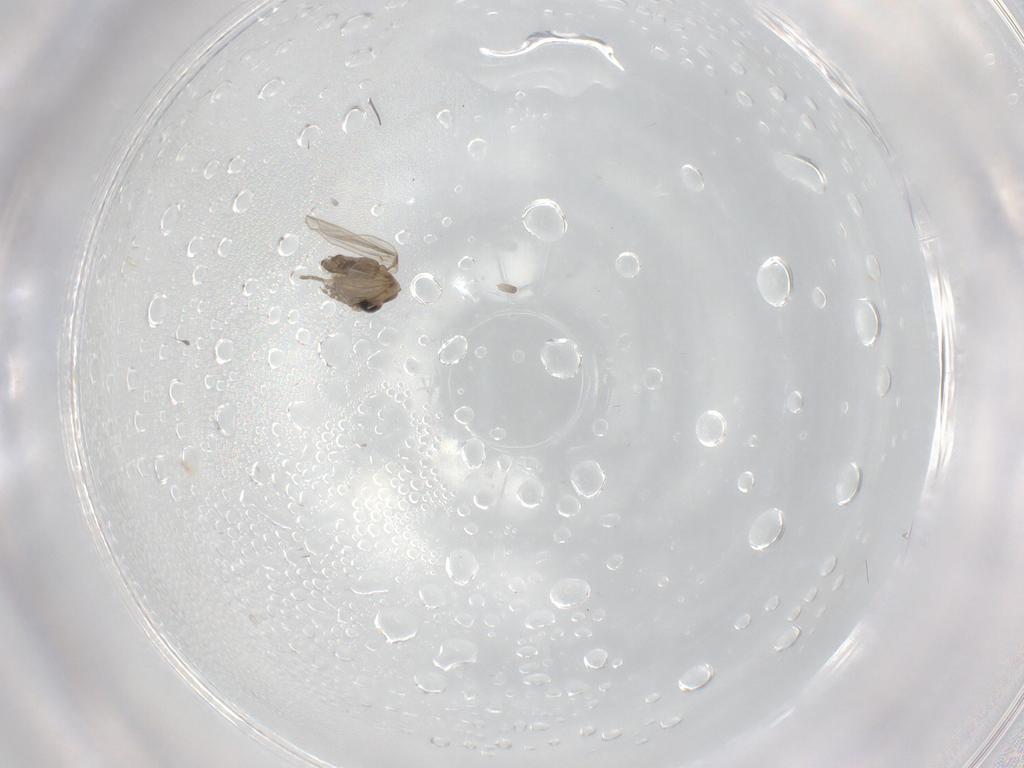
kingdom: Animalia
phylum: Arthropoda
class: Insecta
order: Diptera
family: Psychodidae
